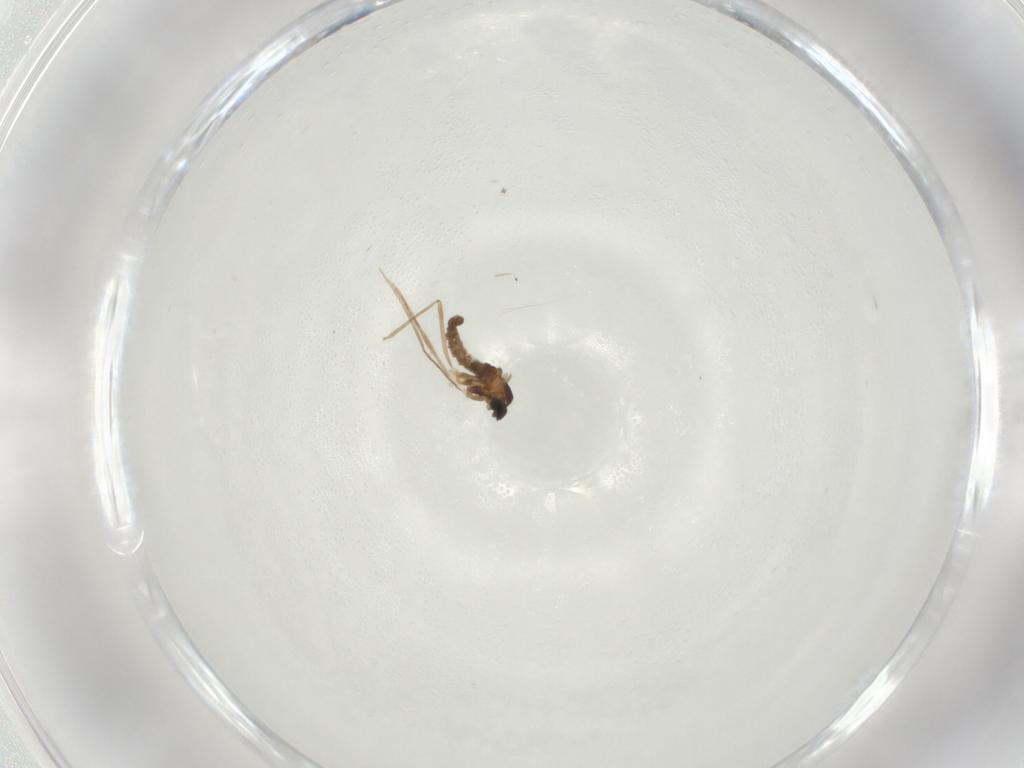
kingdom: Animalia
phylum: Arthropoda
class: Insecta
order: Diptera
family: Cecidomyiidae
